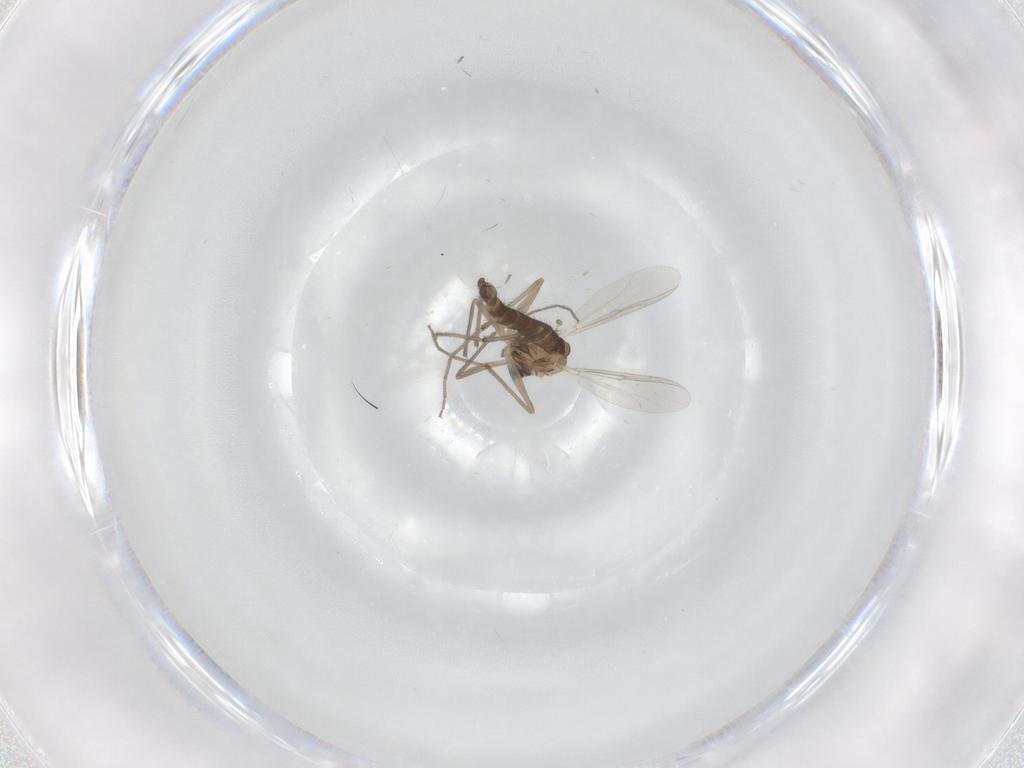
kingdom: Animalia
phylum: Arthropoda
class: Insecta
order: Diptera
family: Chironomidae
